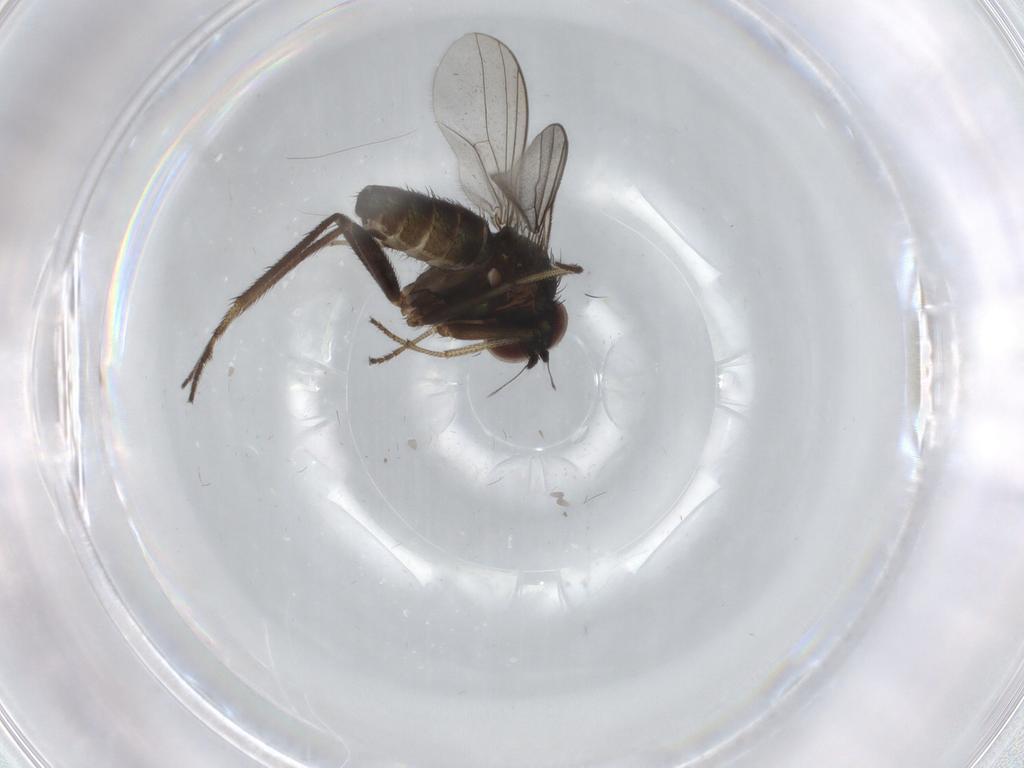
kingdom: Animalia
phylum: Arthropoda
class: Insecta
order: Diptera
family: Dolichopodidae
